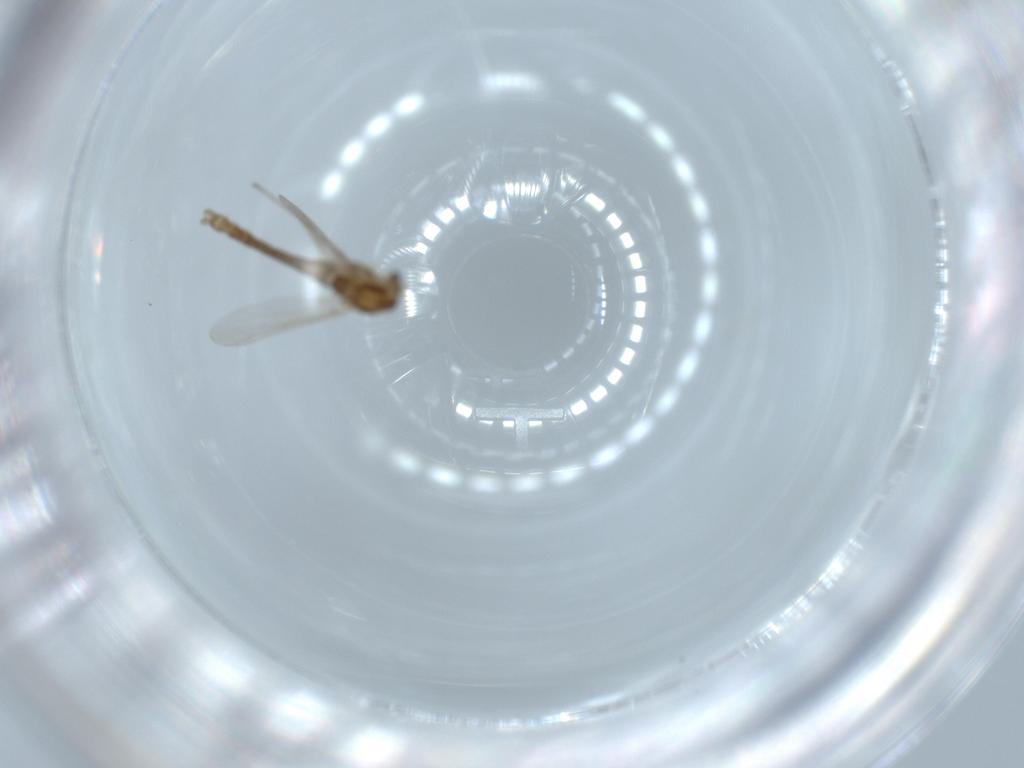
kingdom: Animalia
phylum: Arthropoda
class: Insecta
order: Diptera
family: Chironomidae
